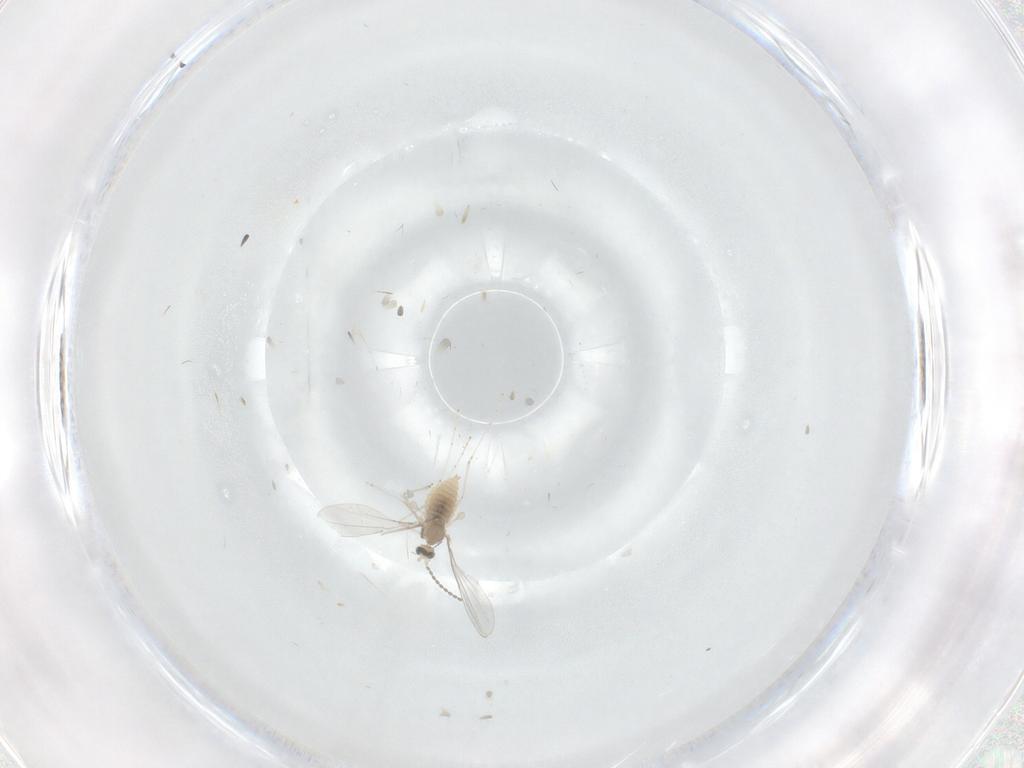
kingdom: Animalia
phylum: Arthropoda
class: Insecta
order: Diptera
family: Cecidomyiidae
